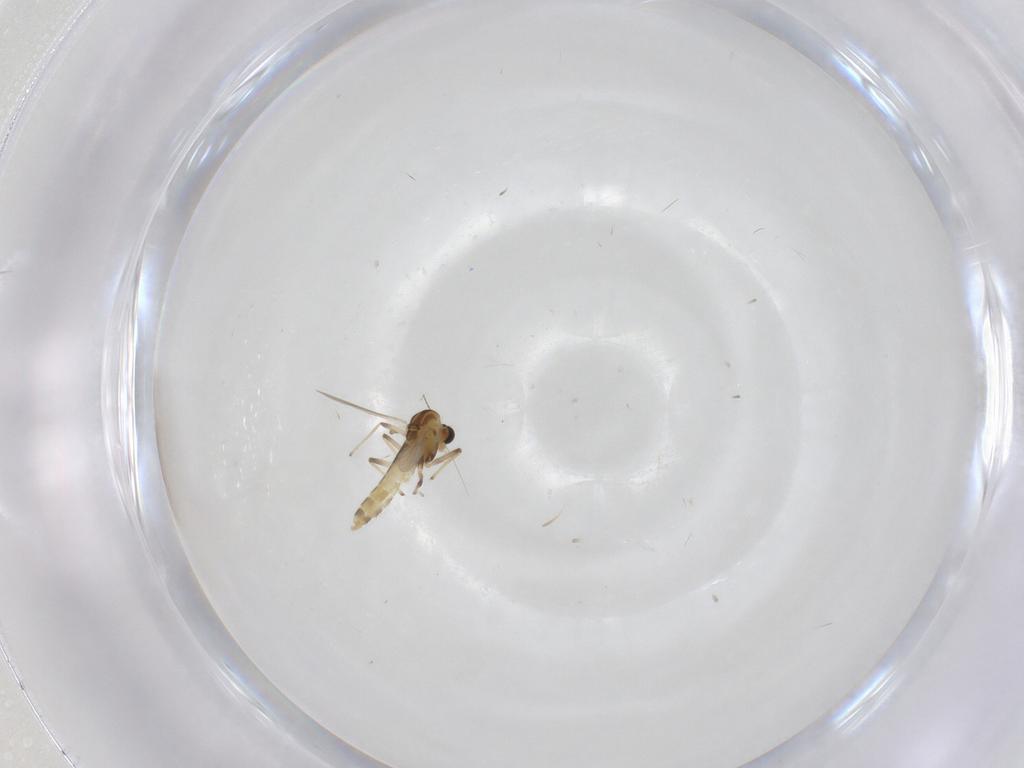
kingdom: Animalia
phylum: Arthropoda
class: Insecta
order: Diptera
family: Chironomidae
